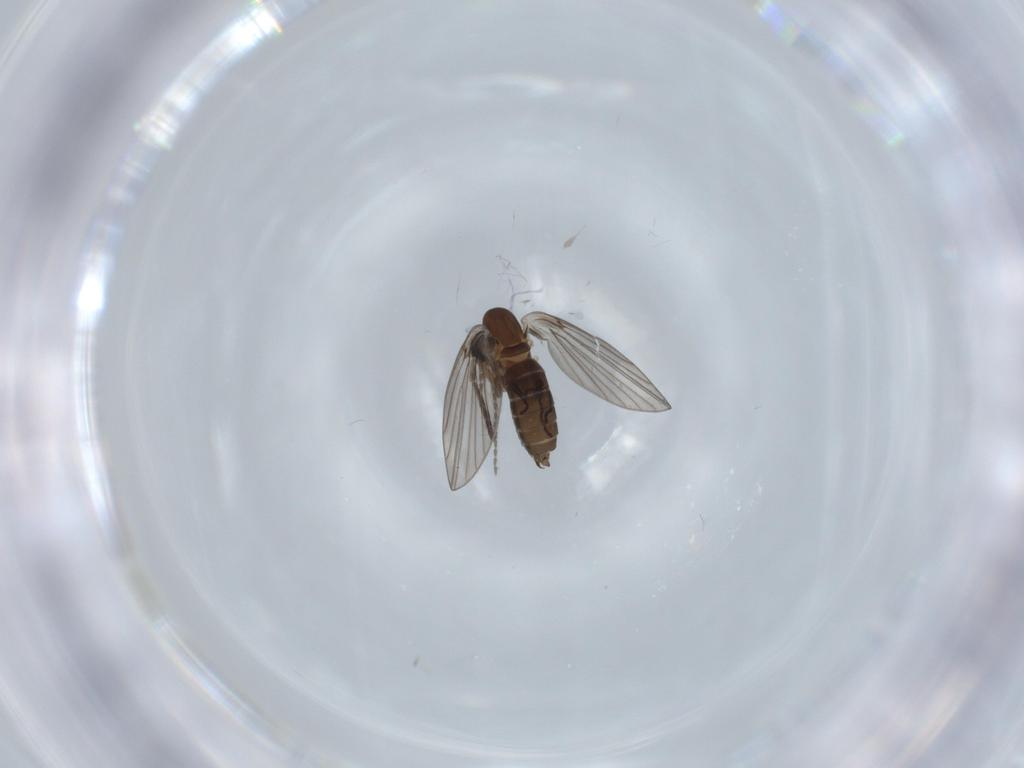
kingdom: Animalia
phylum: Arthropoda
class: Insecta
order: Diptera
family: Psychodidae
